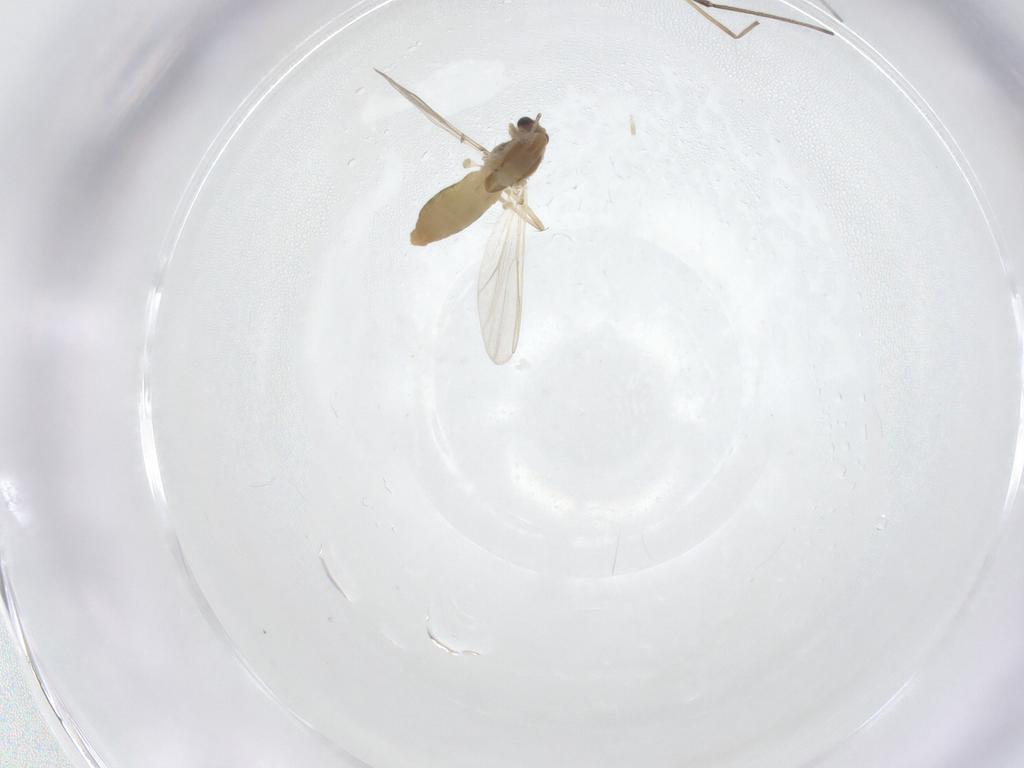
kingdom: Animalia
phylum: Arthropoda
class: Insecta
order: Diptera
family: Chironomidae
